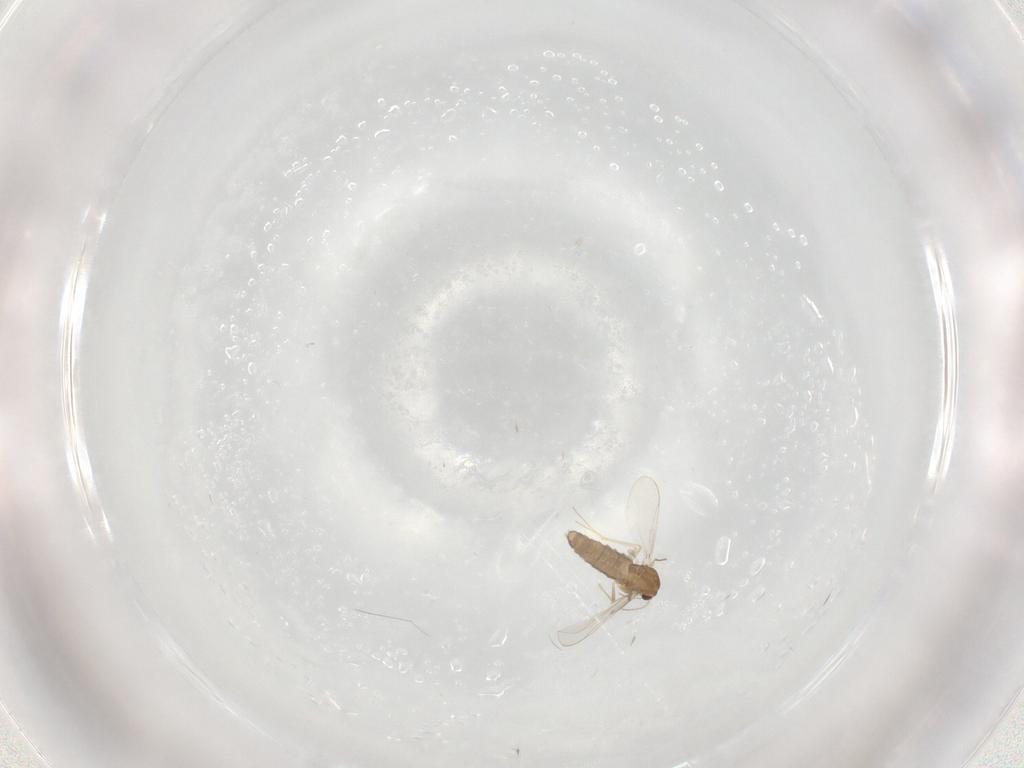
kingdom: Animalia
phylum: Arthropoda
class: Insecta
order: Diptera
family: Chironomidae
